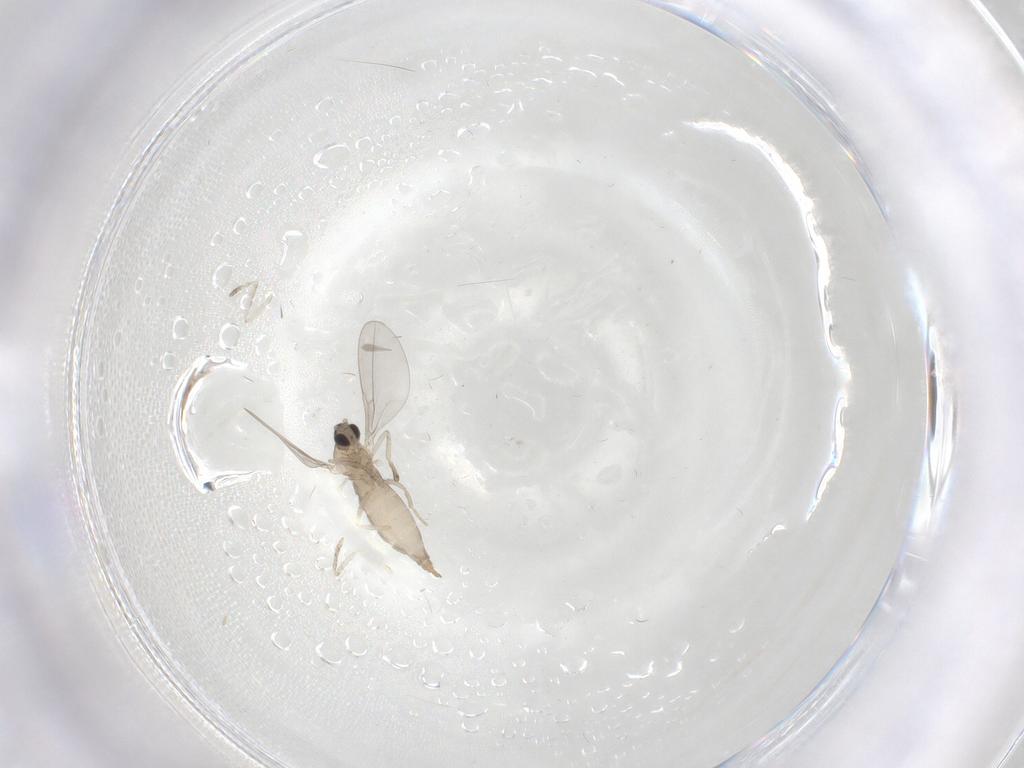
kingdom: Animalia
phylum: Arthropoda
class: Insecta
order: Diptera
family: Cecidomyiidae
